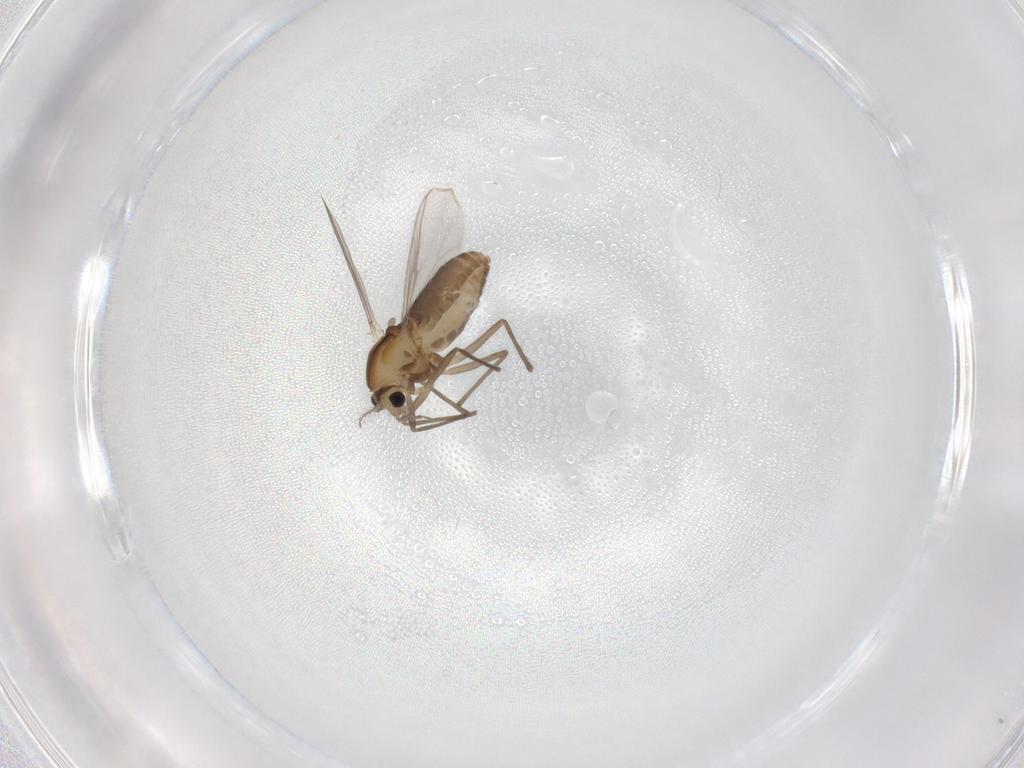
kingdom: Animalia
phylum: Arthropoda
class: Insecta
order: Diptera
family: Chironomidae
